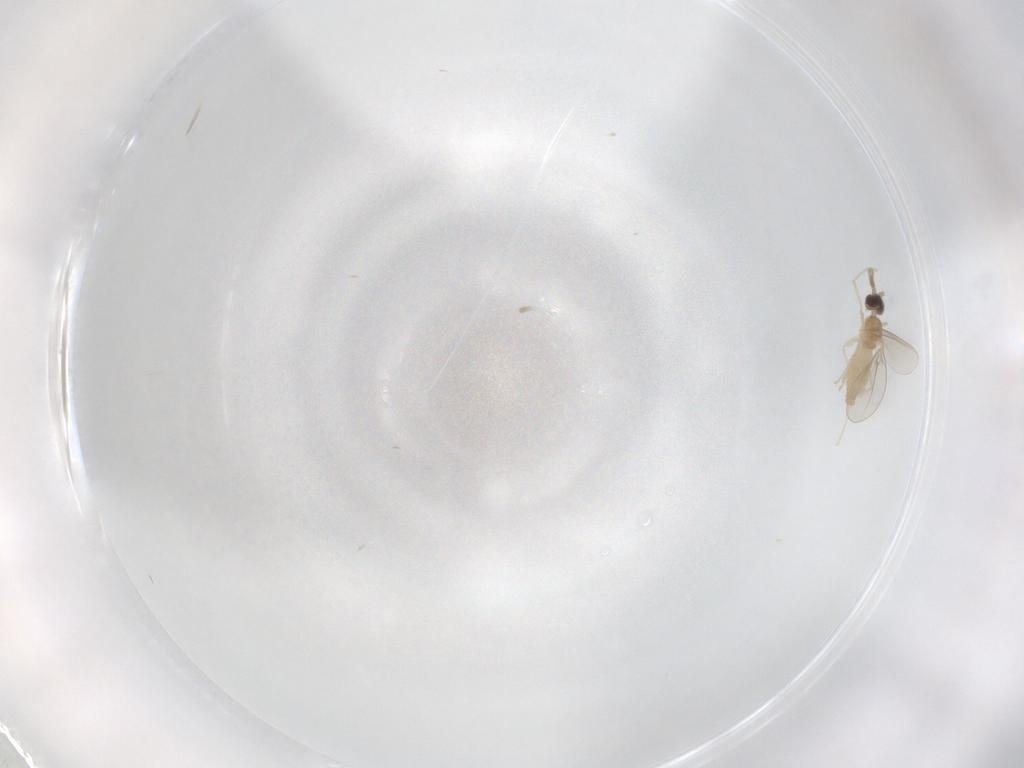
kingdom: Animalia
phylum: Arthropoda
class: Insecta
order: Diptera
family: Cecidomyiidae
